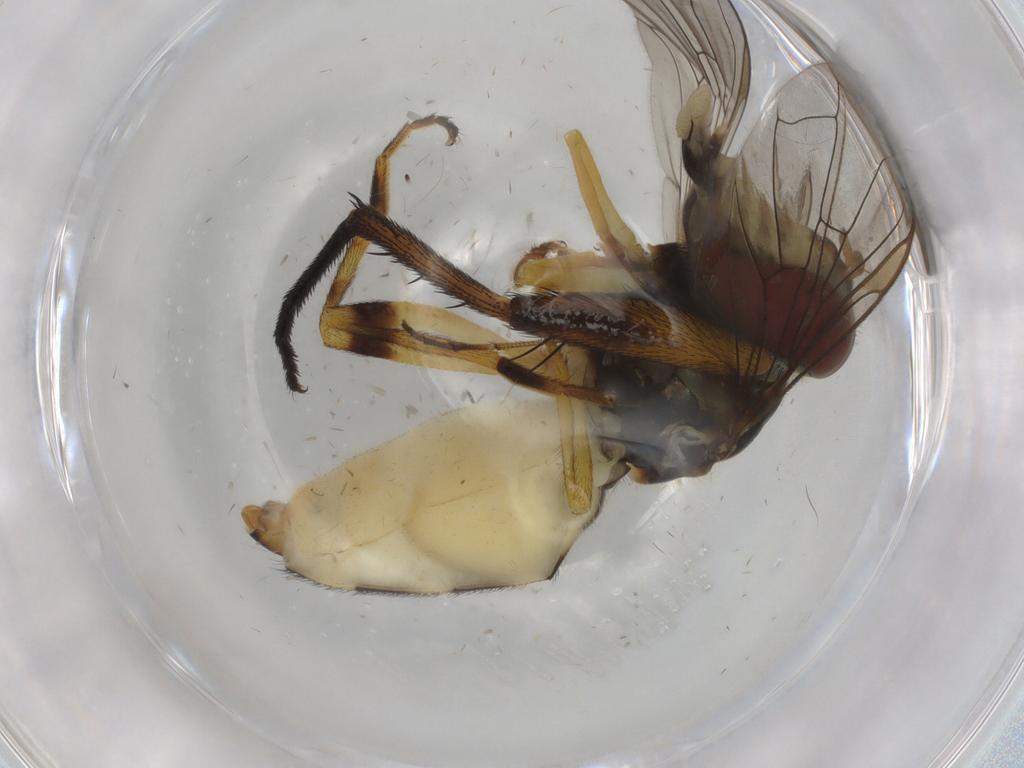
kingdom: Animalia
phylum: Arthropoda
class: Insecta
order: Diptera
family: Syrphidae
